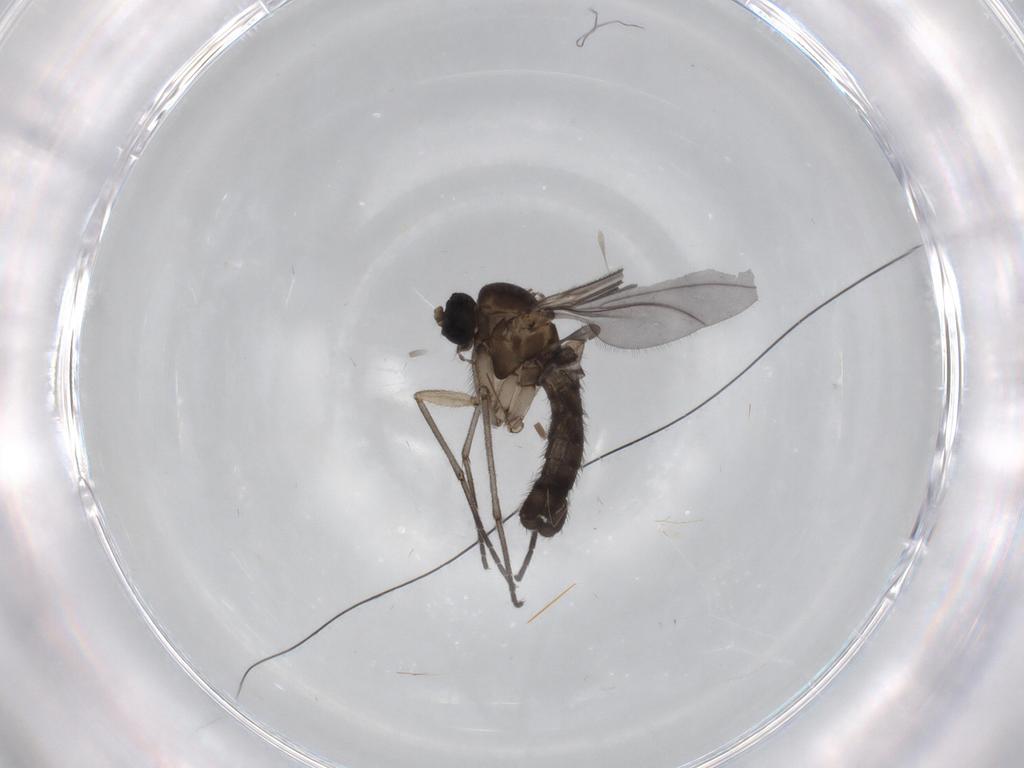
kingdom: Animalia
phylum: Arthropoda
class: Insecta
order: Diptera
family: Sciaridae
